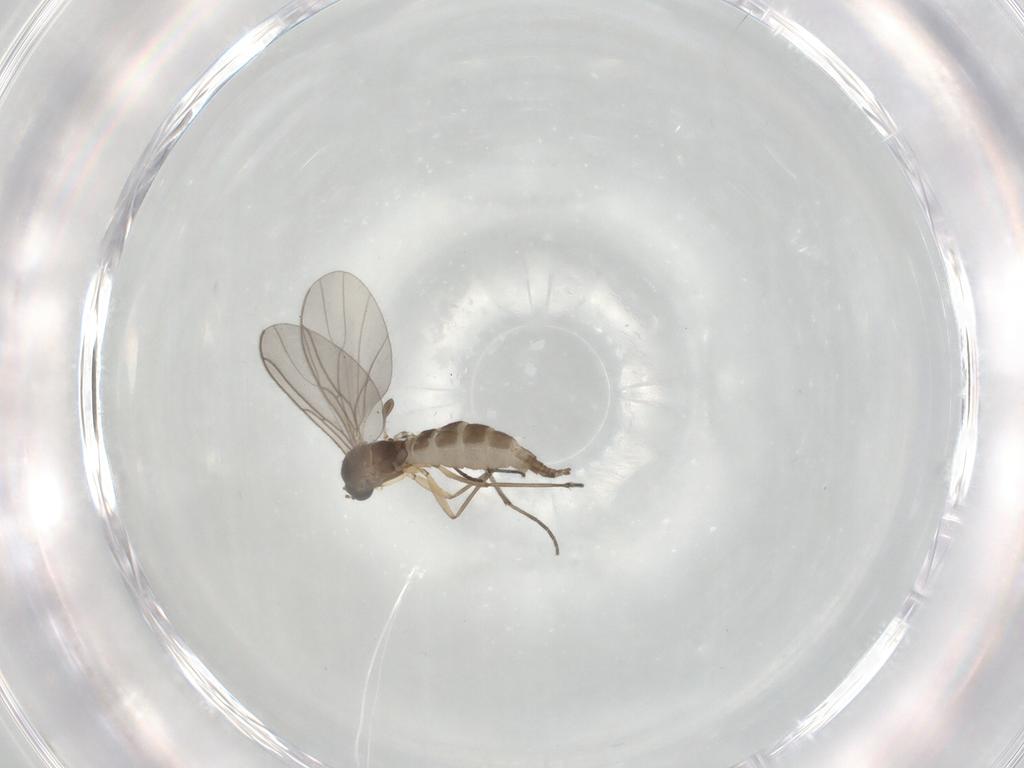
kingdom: Animalia
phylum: Arthropoda
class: Insecta
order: Diptera
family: Sciaridae
